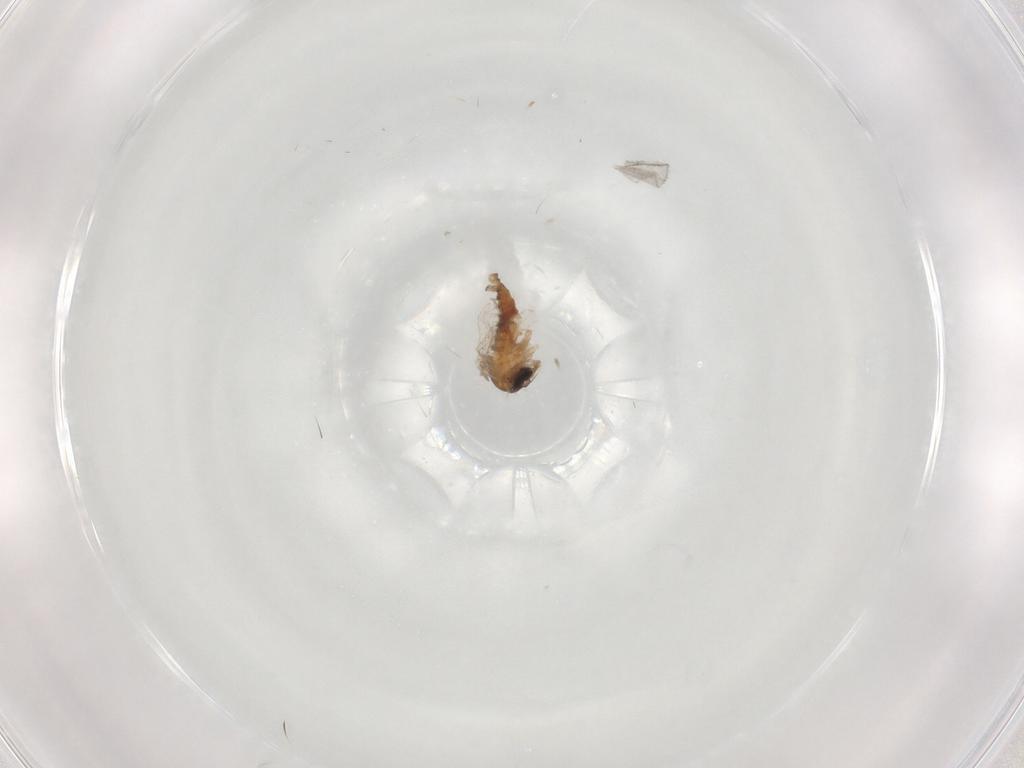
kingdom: Animalia
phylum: Arthropoda
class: Insecta
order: Diptera
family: Psychodidae
